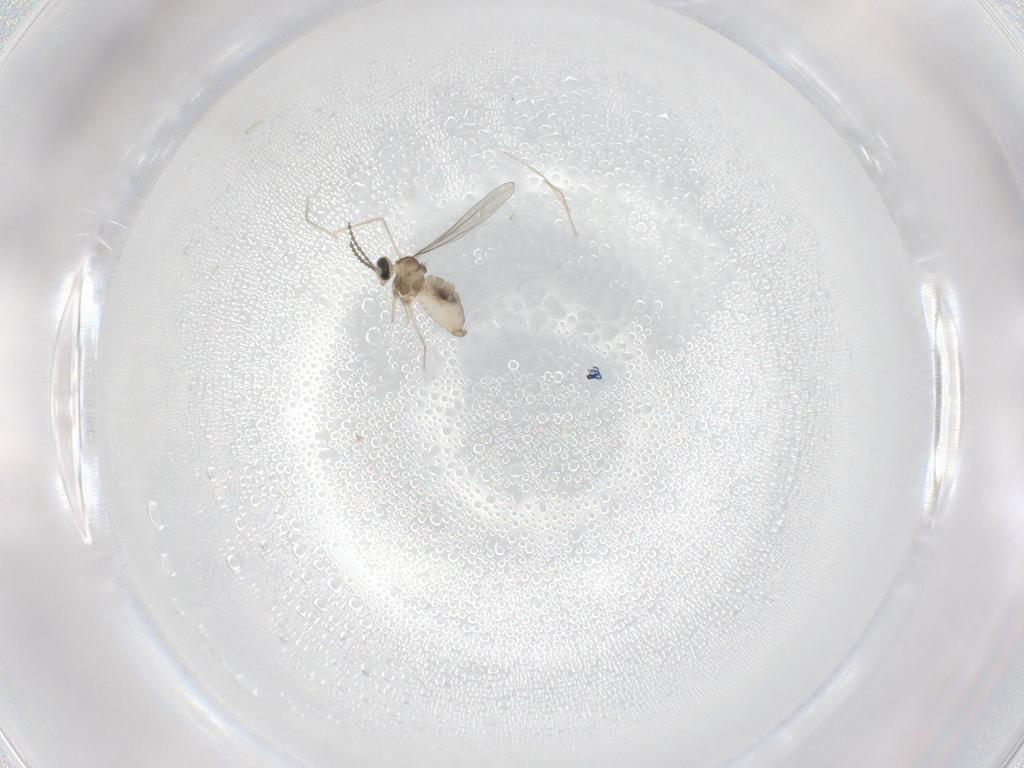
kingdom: Animalia
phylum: Arthropoda
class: Insecta
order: Diptera
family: Cecidomyiidae
